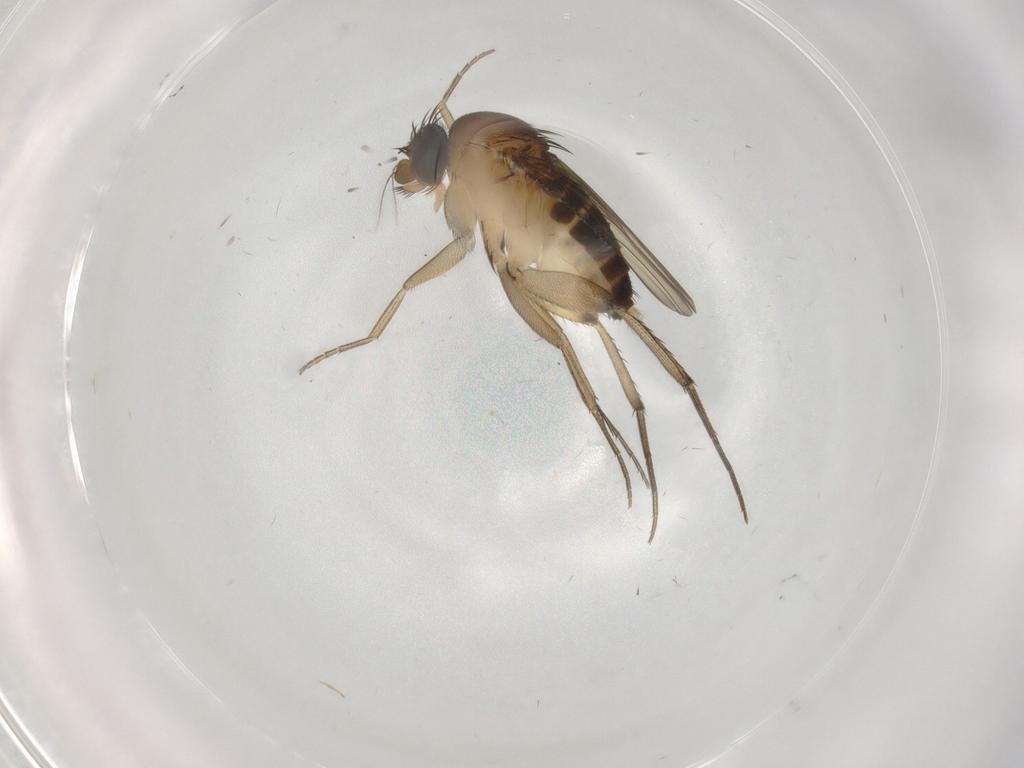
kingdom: Animalia
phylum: Arthropoda
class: Insecta
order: Diptera
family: Phoridae
